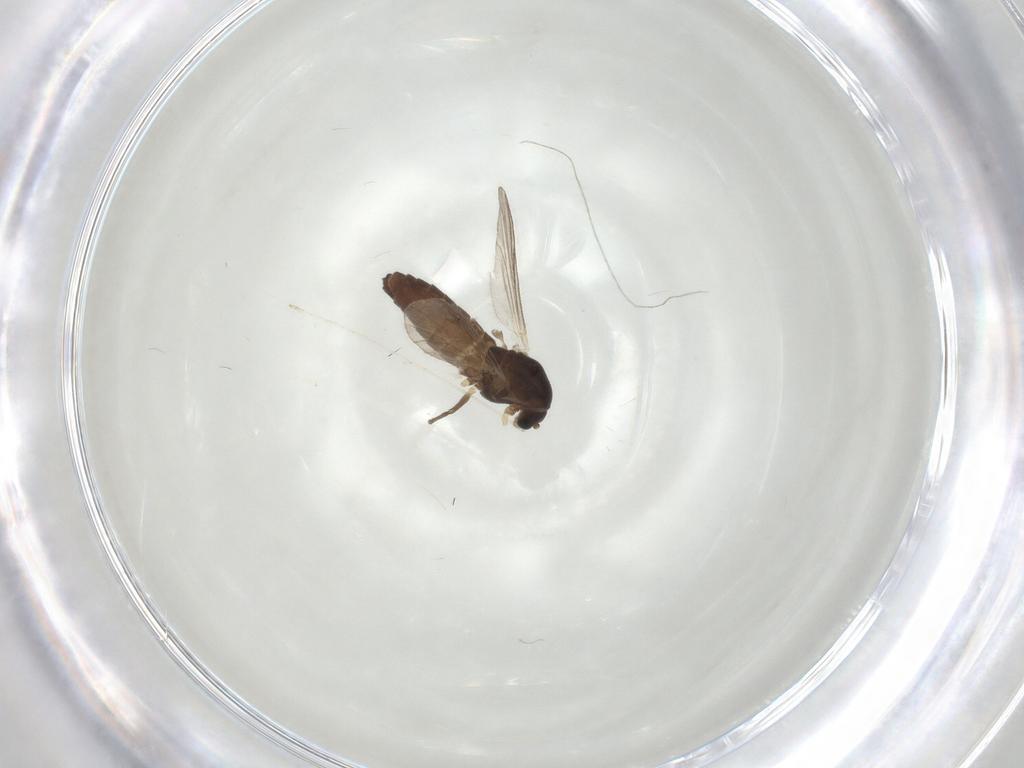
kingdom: Animalia
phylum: Arthropoda
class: Insecta
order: Diptera
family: Chironomidae
